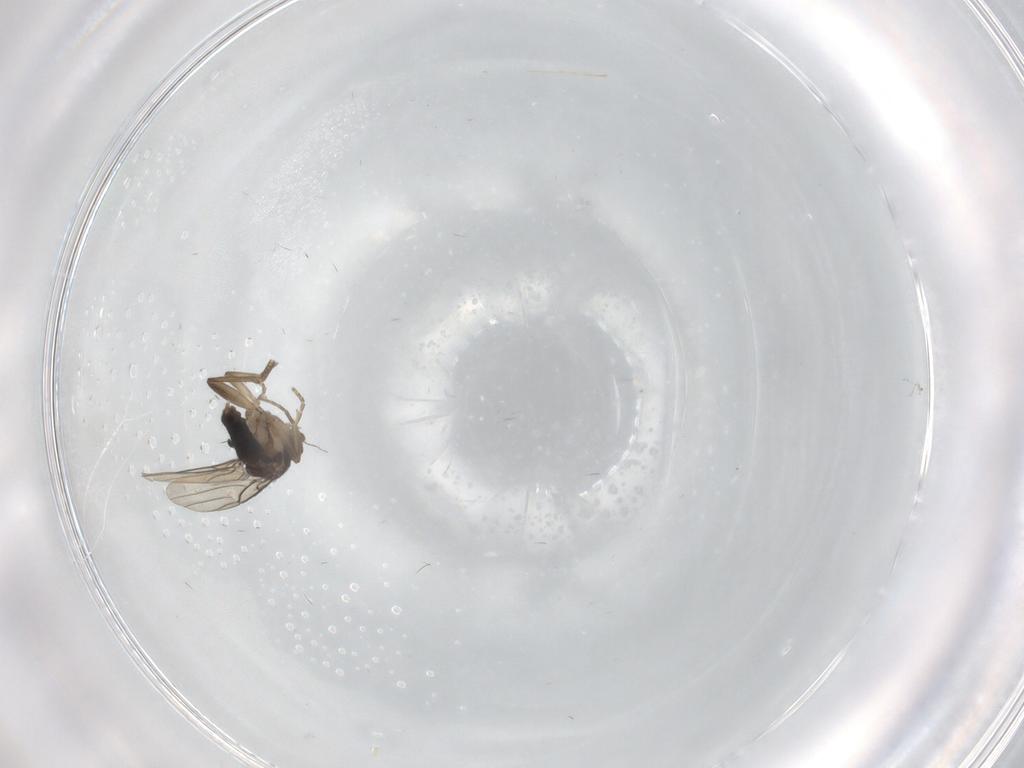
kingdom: Animalia
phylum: Arthropoda
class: Insecta
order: Diptera
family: Phoridae
